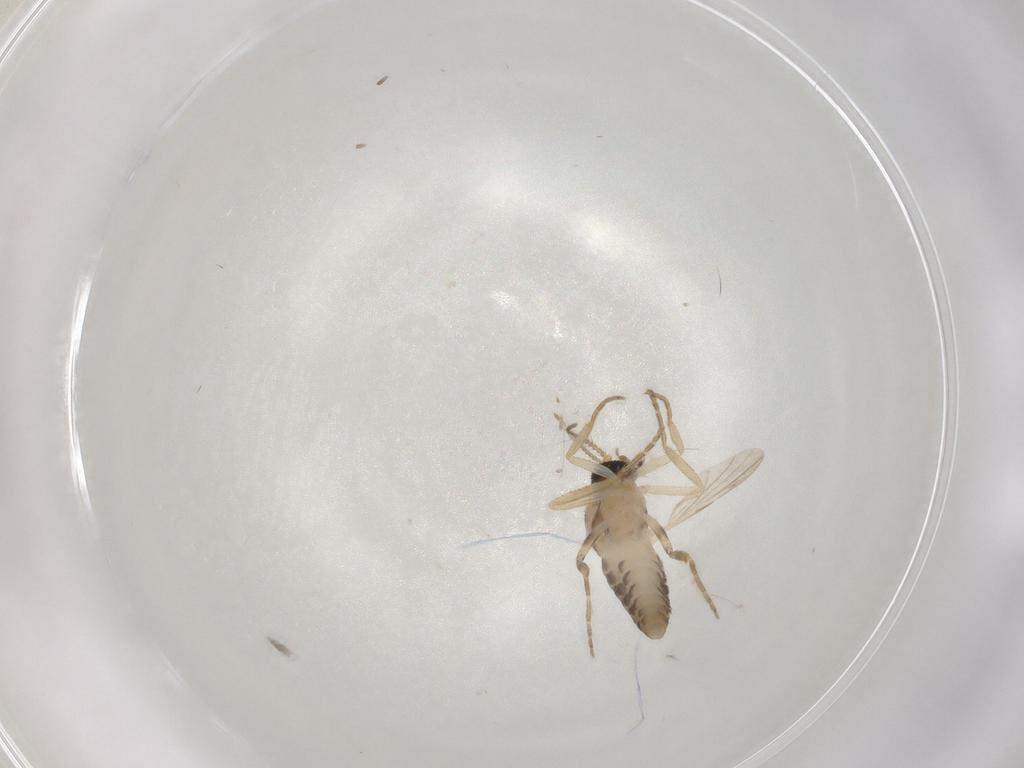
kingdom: Animalia
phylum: Arthropoda
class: Insecta
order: Diptera
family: Ceratopogonidae
